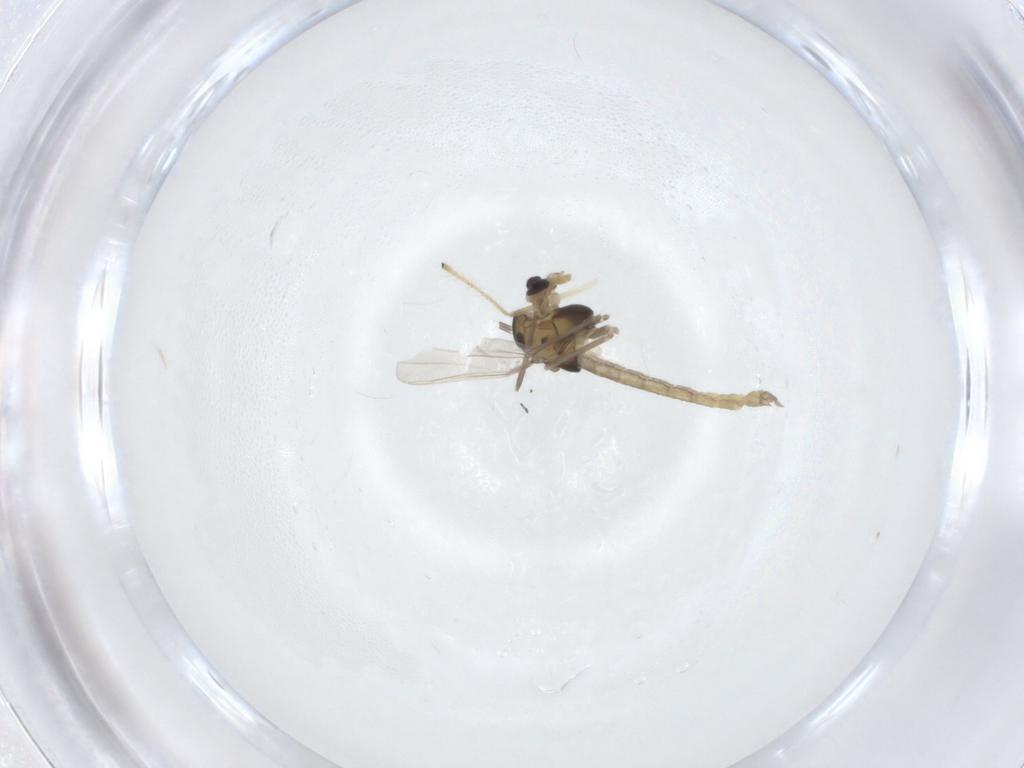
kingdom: Animalia
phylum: Arthropoda
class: Insecta
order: Diptera
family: Chironomidae
